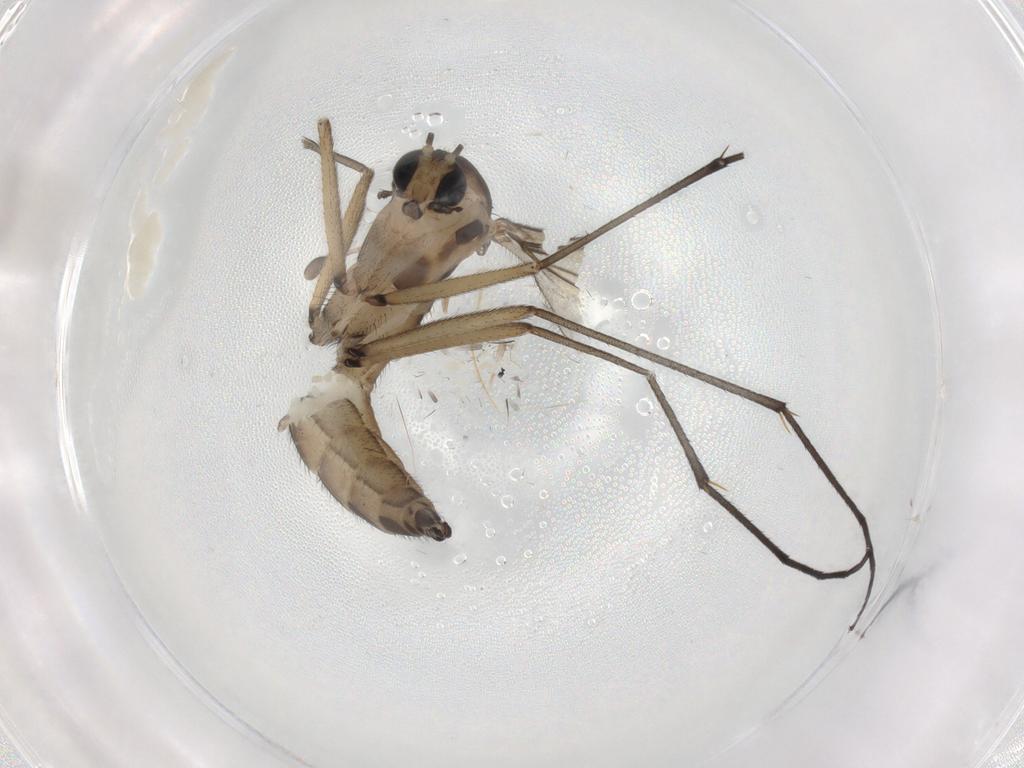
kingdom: Animalia
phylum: Arthropoda
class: Insecta
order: Diptera
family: Sciaridae
